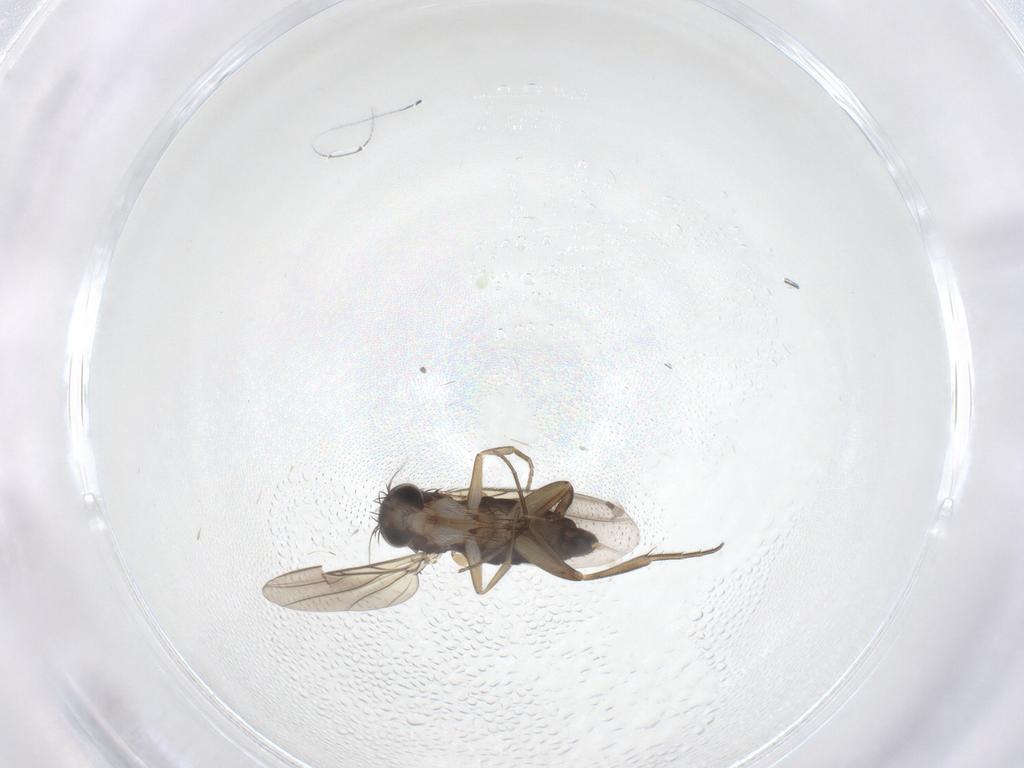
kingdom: Animalia
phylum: Arthropoda
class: Insecta
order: Diptera
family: Phoridae
